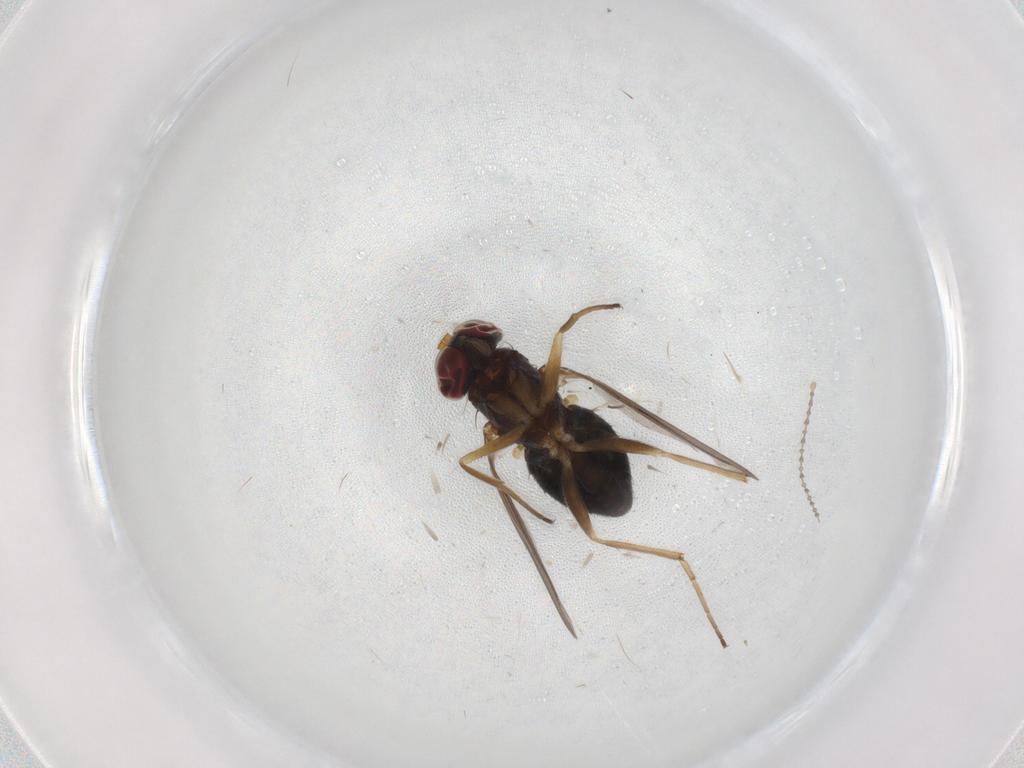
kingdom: Animalia
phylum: Arthropoda
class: Insecta
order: Diptera
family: Dolichopodidae
